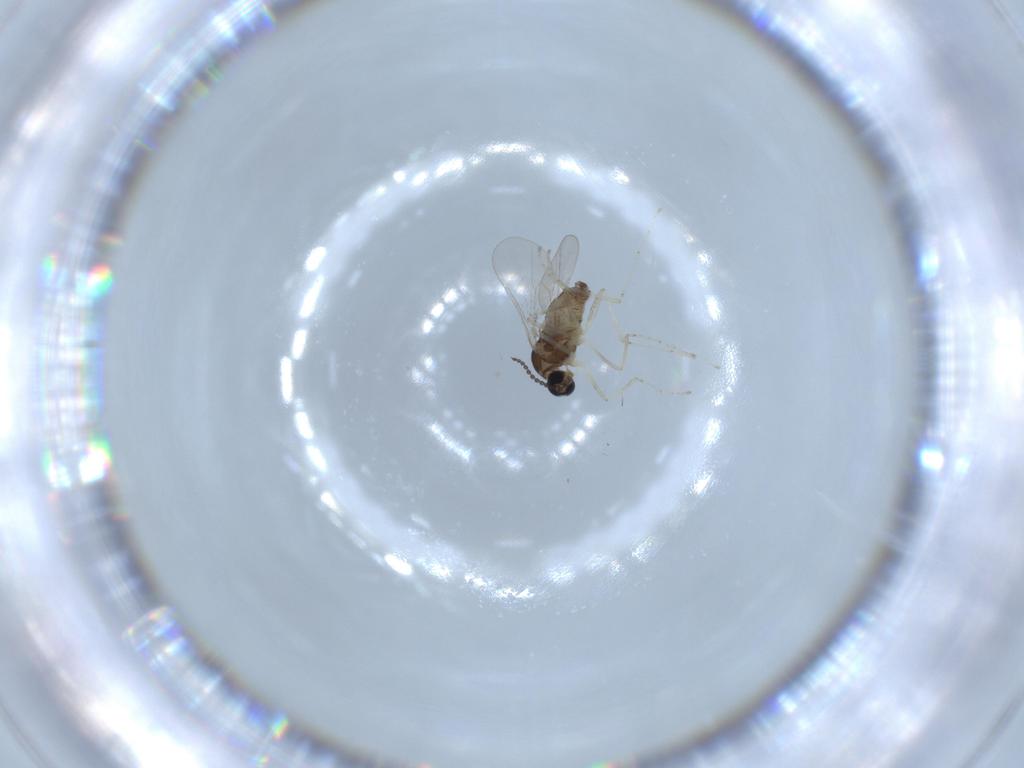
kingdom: Animalia
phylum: Arthropoda
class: Insecta
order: Diptera
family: Cecidomyiidae
